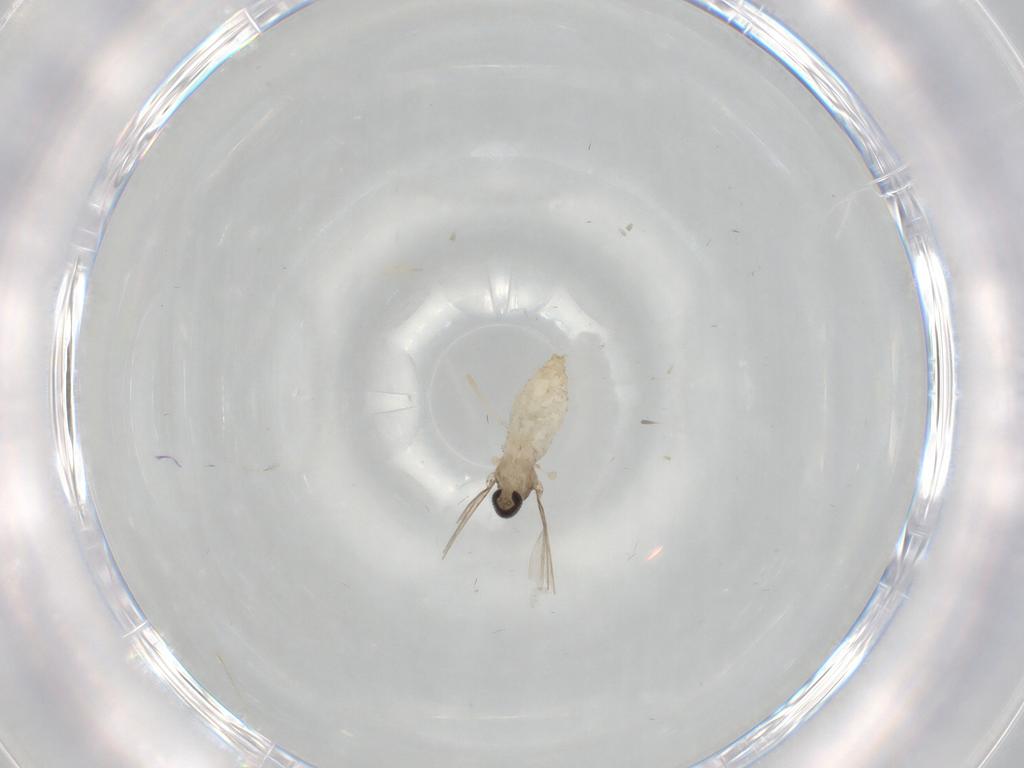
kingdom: Animalia
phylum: Arthropoda
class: Insecta
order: Diptera
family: Cecidomyiidae
